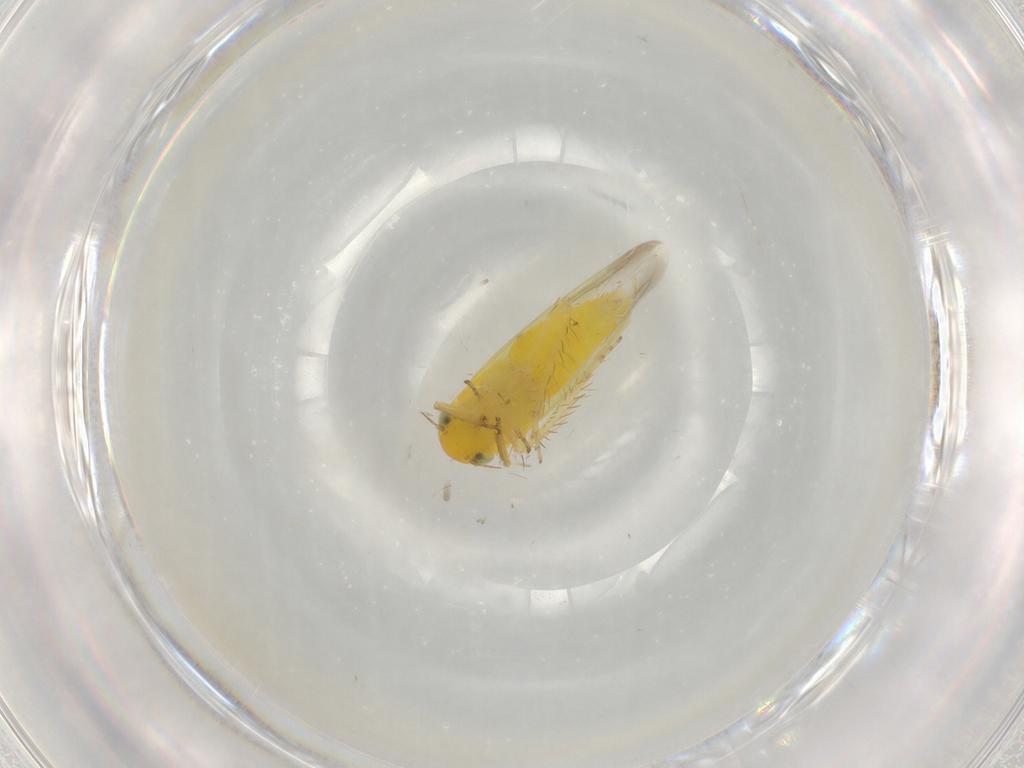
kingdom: Animalia
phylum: Arthropoda
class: Insecta
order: Hemiptera
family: Cicadellidae
